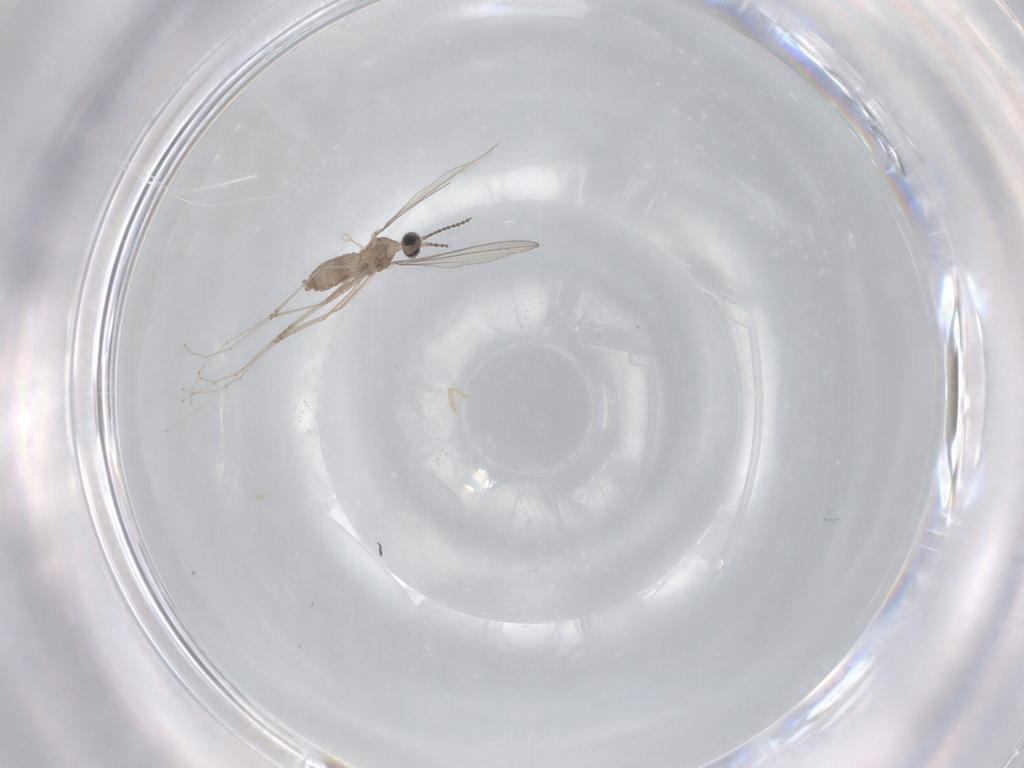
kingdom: Animalia
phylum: Arthropoda
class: Insecta
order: Diptera
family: Cecidomyiidae
